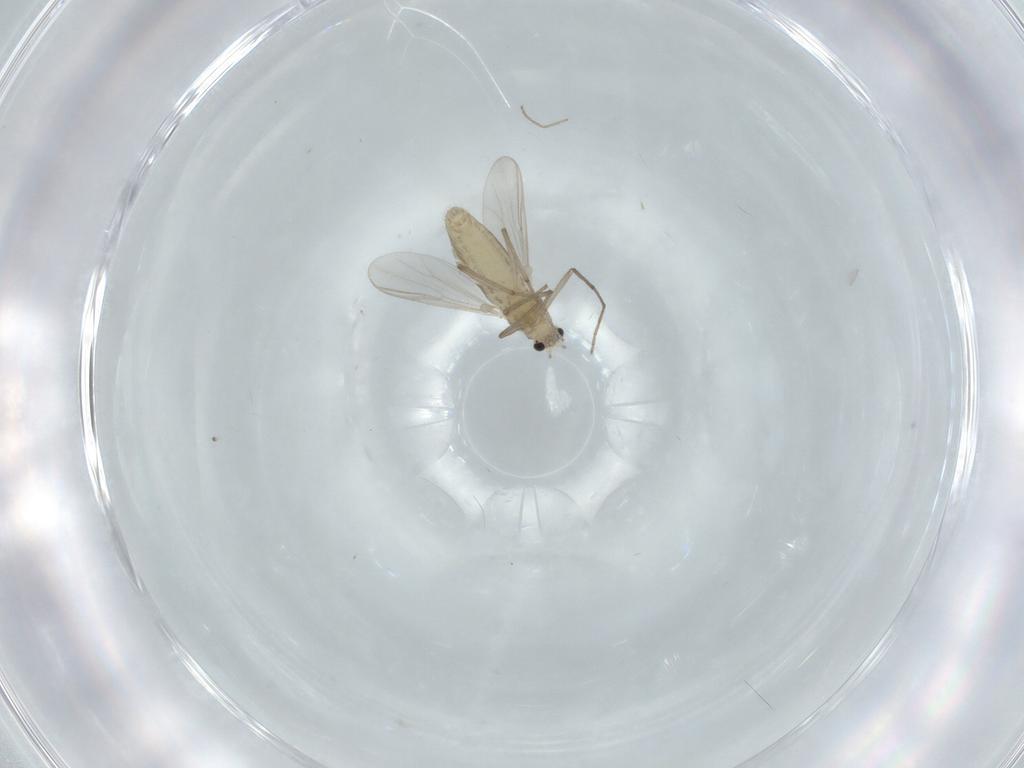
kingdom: Animalia
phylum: Arthropoda
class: Insecta
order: Diptera
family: Chironomidae
